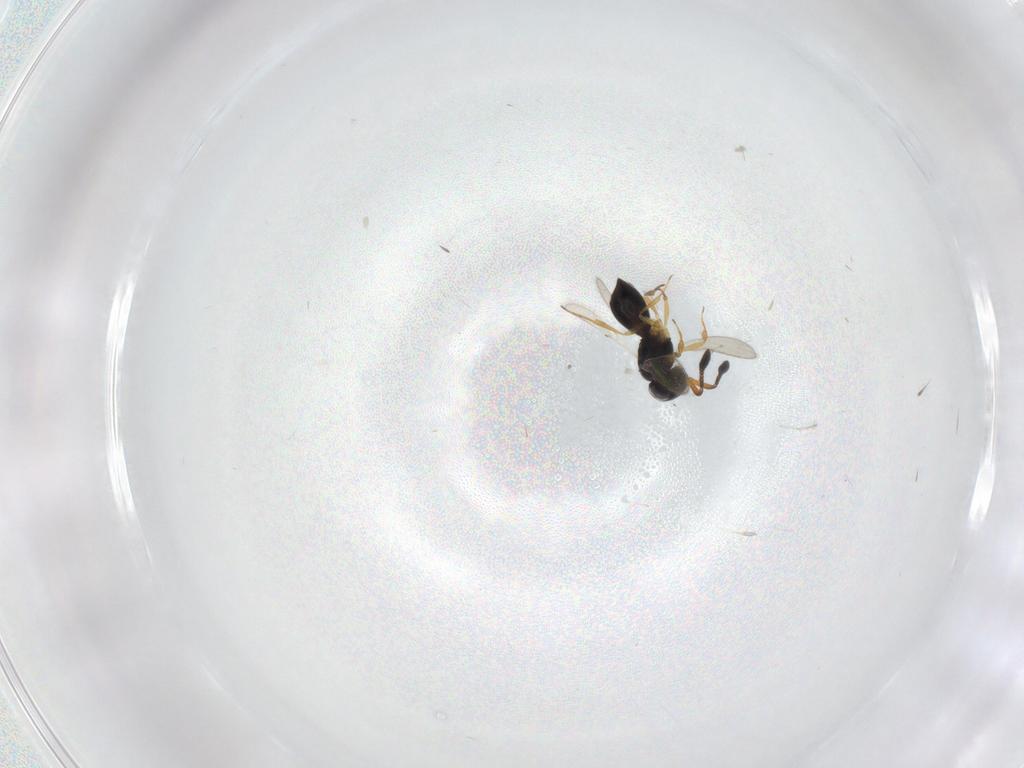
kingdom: Animalia
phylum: Arthropoda
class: Insecta
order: Hymenoptera
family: Scelionidae
